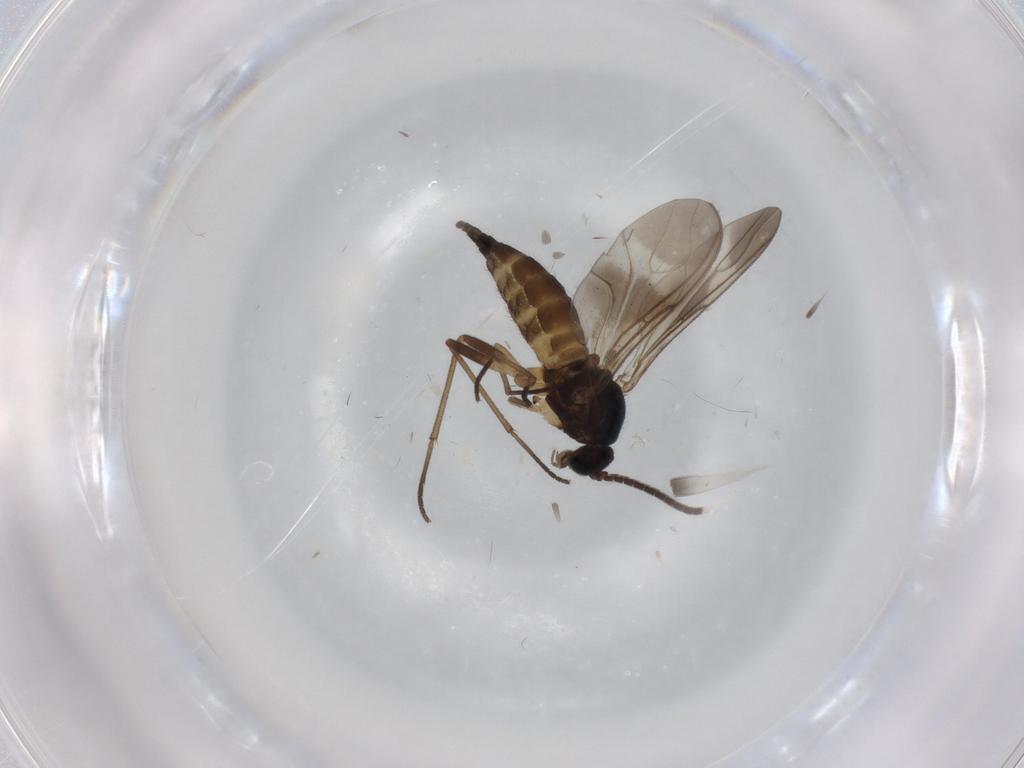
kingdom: Animalia
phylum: Arthropoda
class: Insecta
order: Diptera
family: Sciaridae
